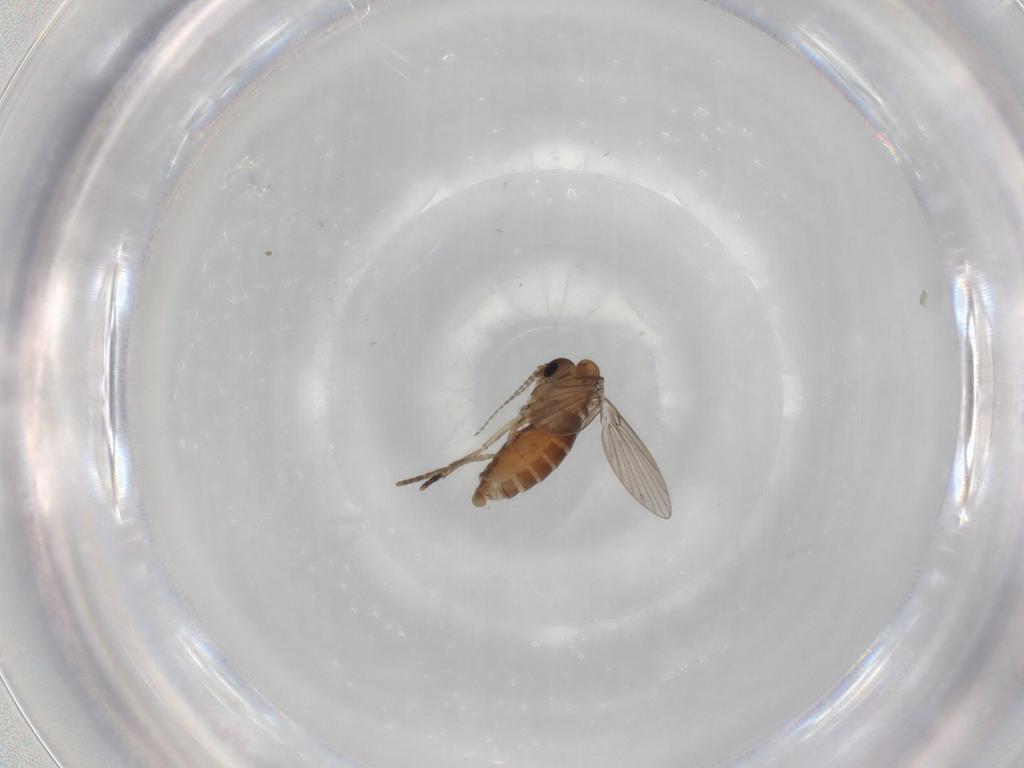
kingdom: Animalia
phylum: Arthropoda
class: Insecta
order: Diptera
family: Psychodidae
